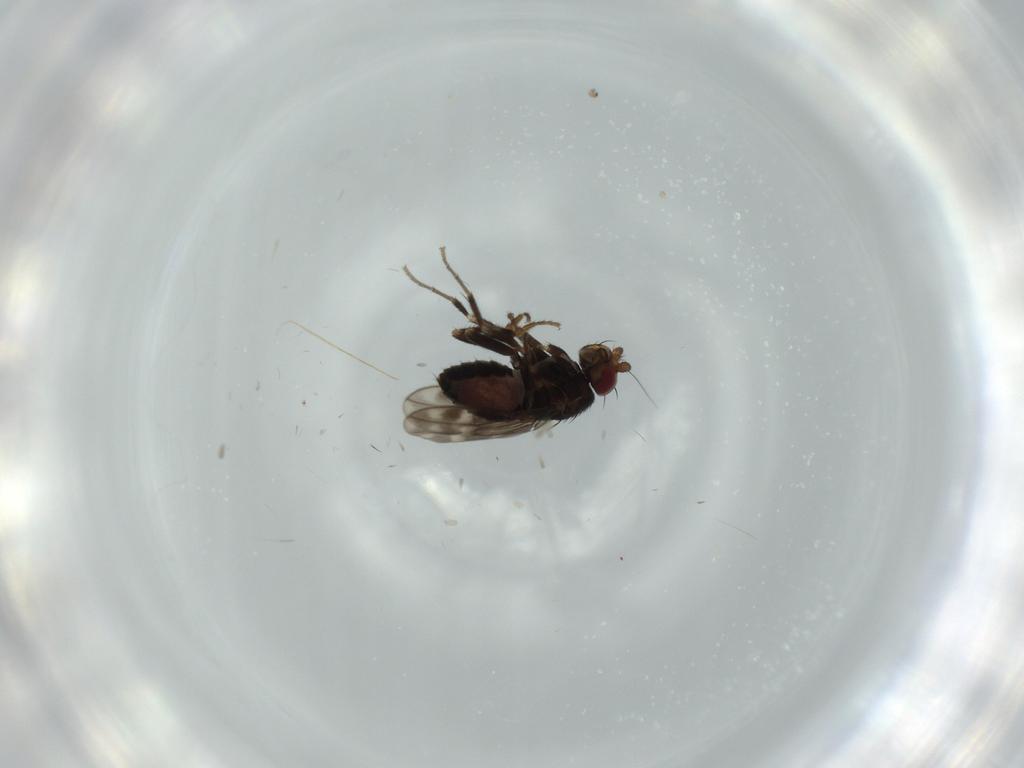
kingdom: Animalia
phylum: Arthropoda
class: Insecta
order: Diptera
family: Sphaeroceridae
